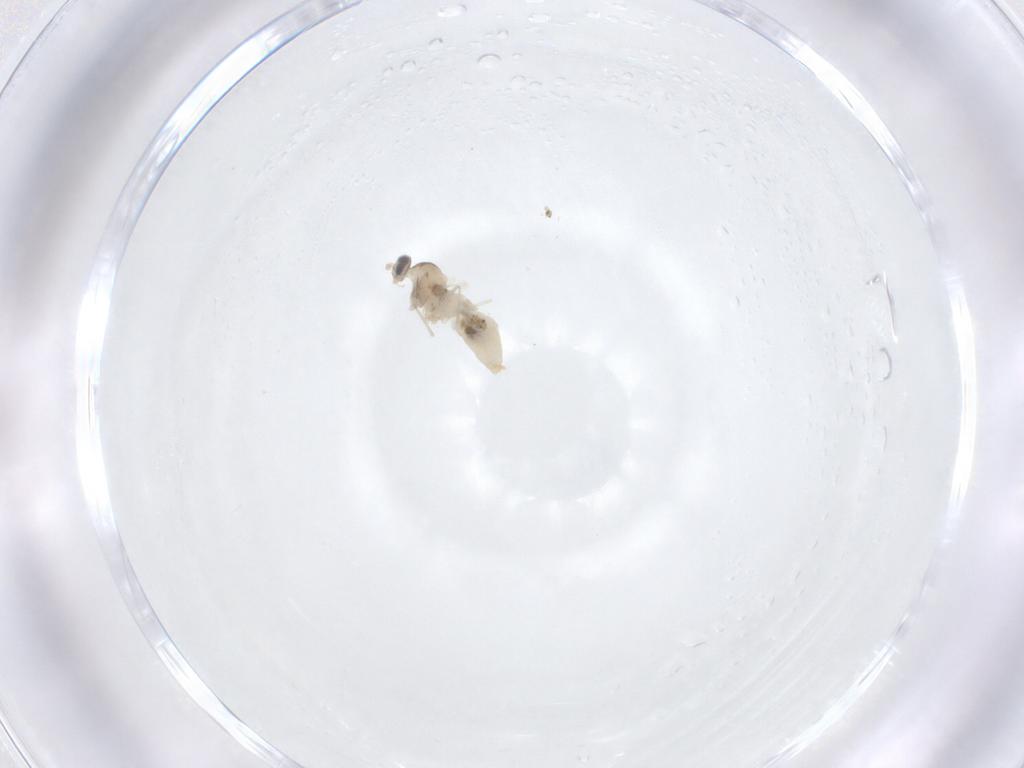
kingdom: Animalia
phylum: Arthropoda
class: Insecta
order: Diptera
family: Cecidomyiidae
